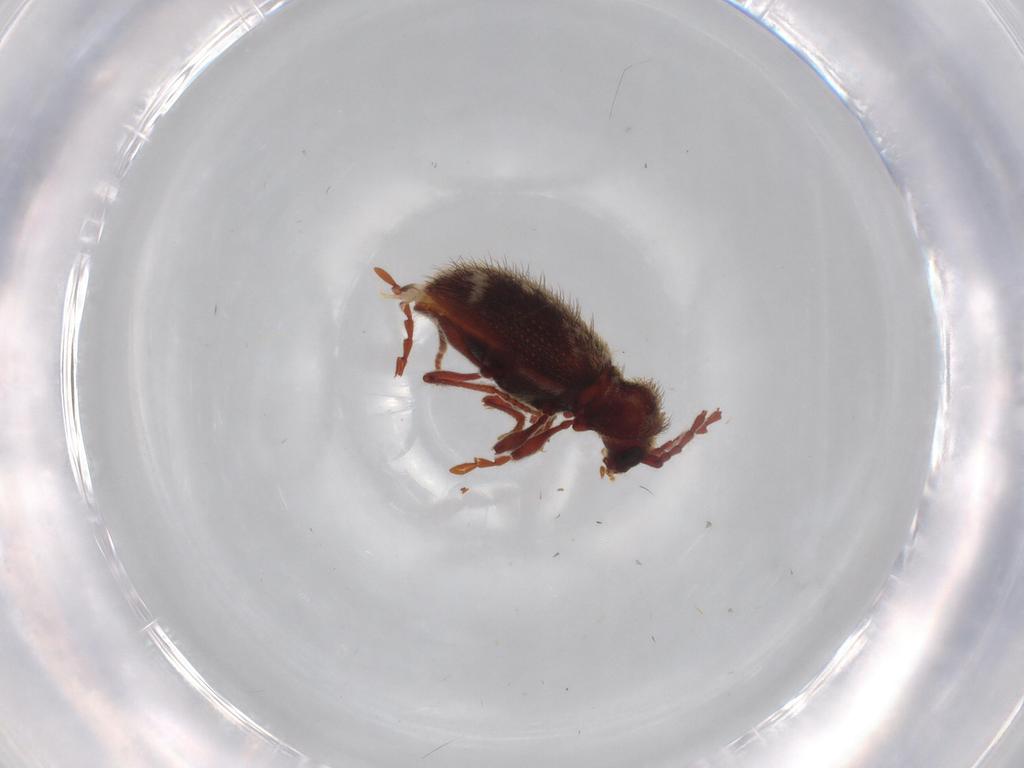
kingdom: Animalia
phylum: Arthropoda
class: Insecta
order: Coleoptera
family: Ptinidae
